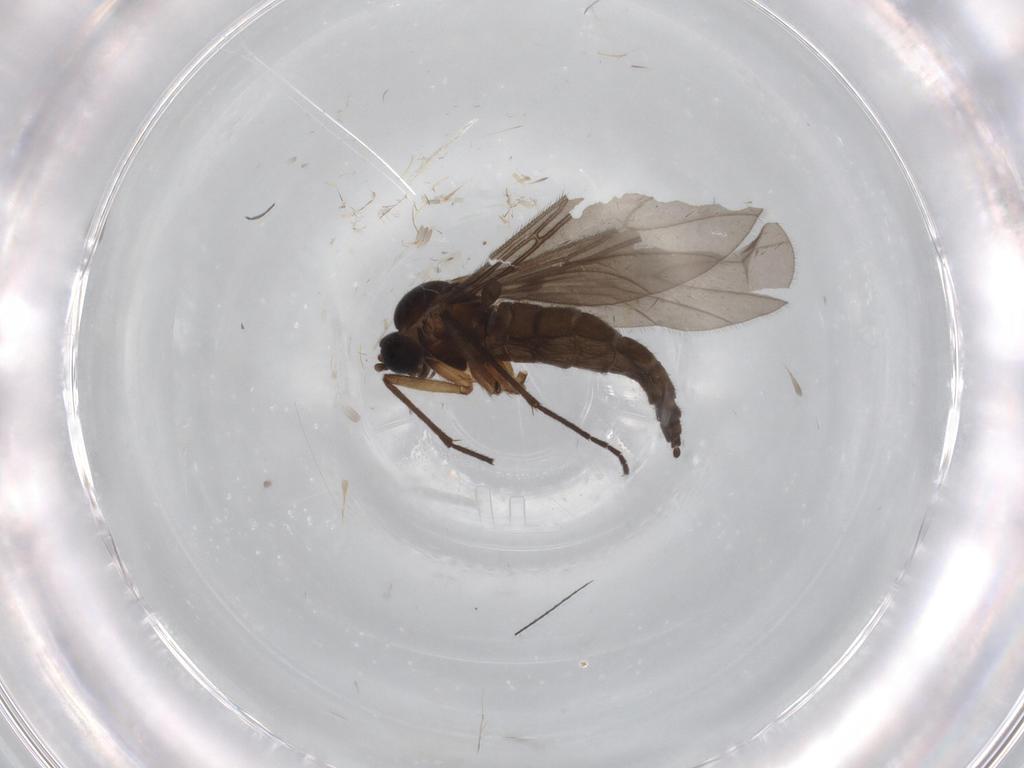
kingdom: Animalia
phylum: Arthropoda
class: Insecta
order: Diptera
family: Sciaridae
